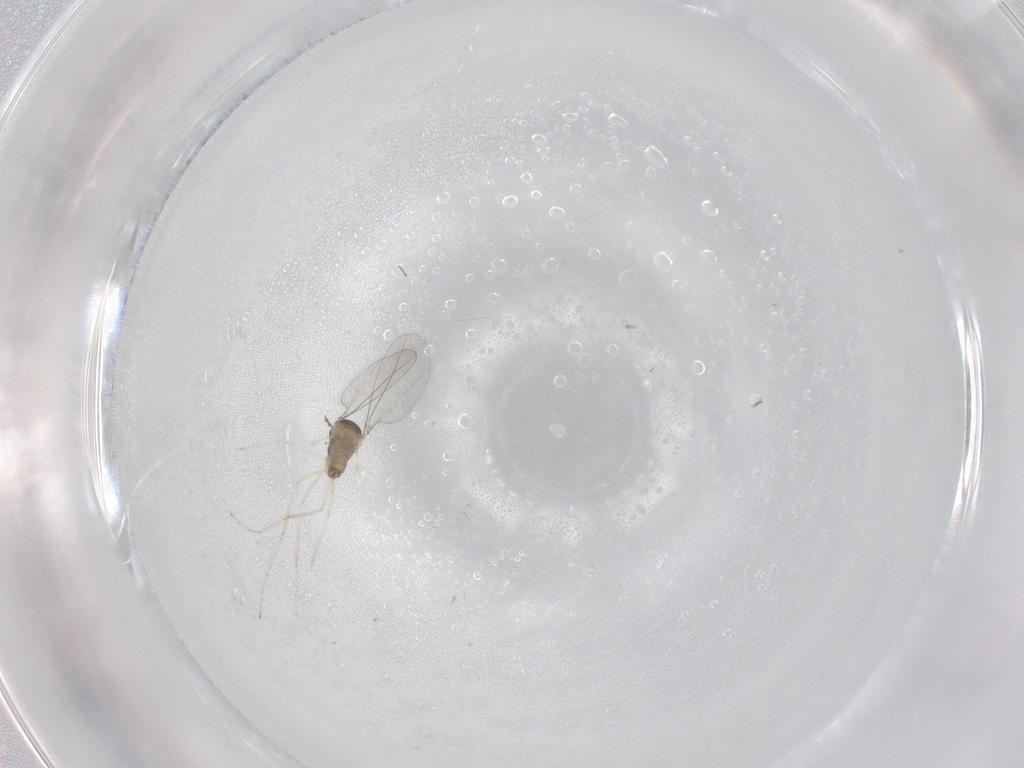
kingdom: Animalia
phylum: Arthropoda
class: Insecta
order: Diptera
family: Cecidomyiidae
